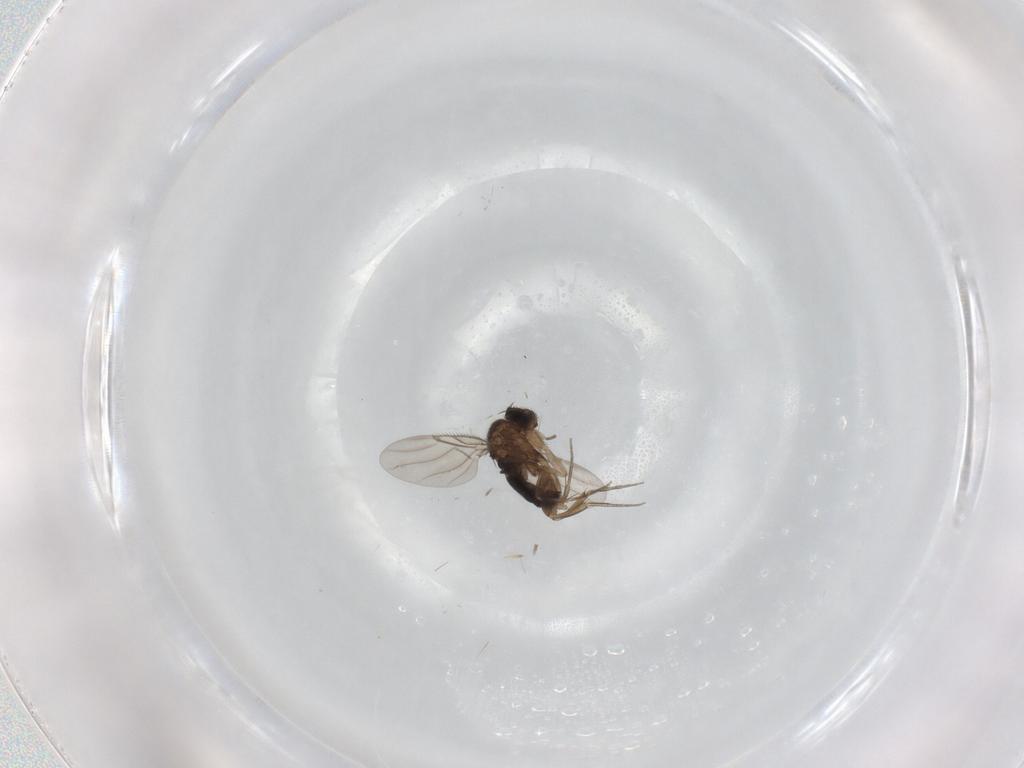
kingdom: Animalia
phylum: Arthropoda
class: Insecta
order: Diptera
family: Phoridae
